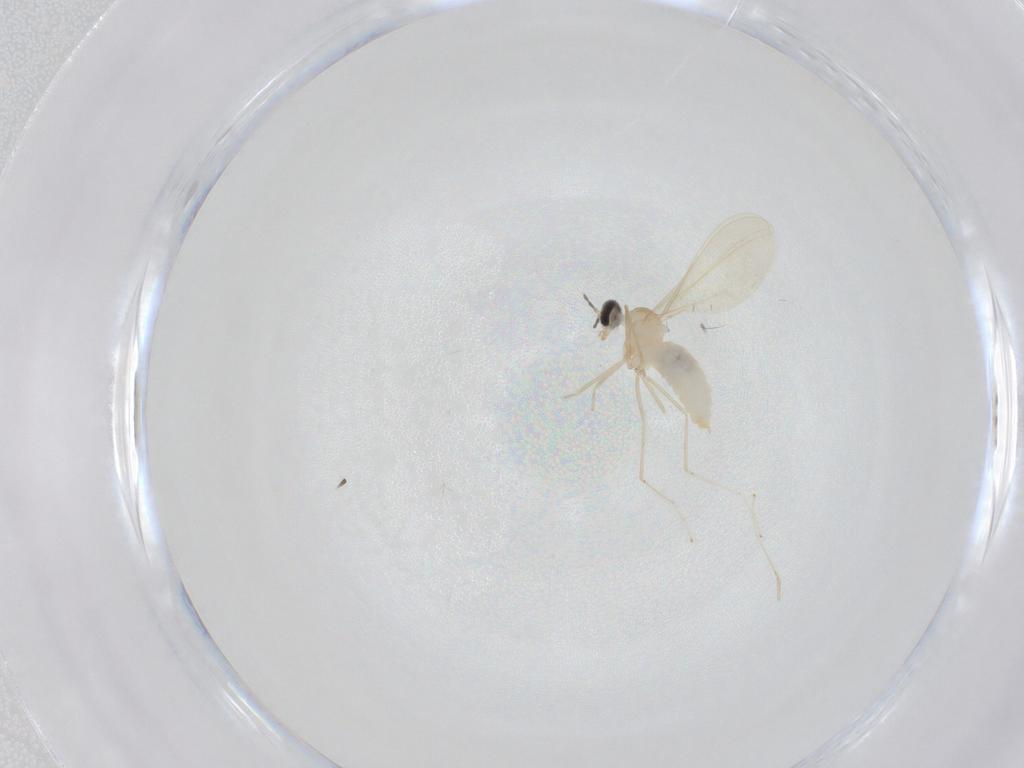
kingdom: Animalia
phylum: Arthropoda
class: Insecta
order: Diptera
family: Cecidomyiidae
